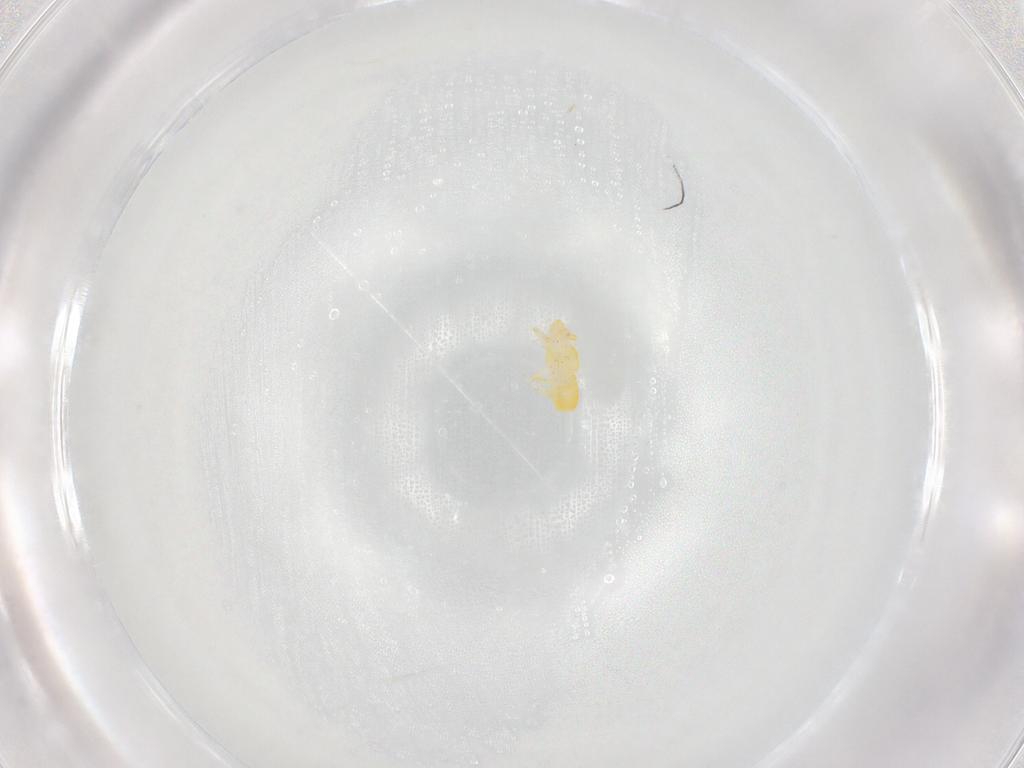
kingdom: Animalia
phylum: Arthropoda
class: Insecta
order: Hemiptera
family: Delphacidae
